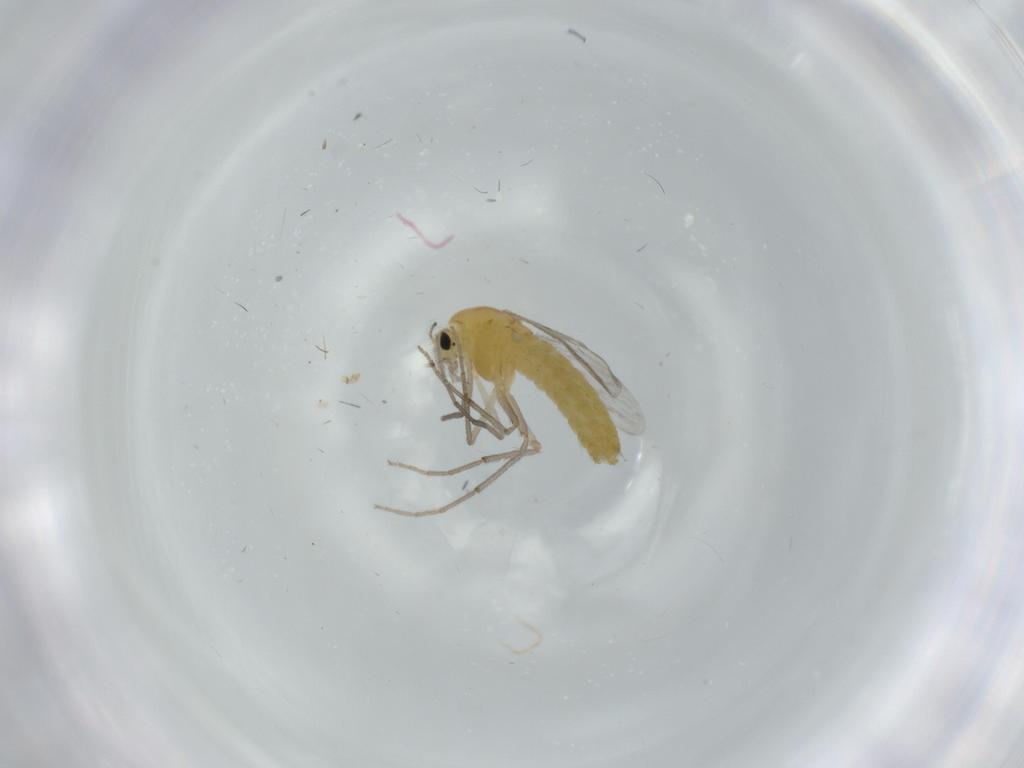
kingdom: Animalia
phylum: Arthropoda
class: Insecta
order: Diptera
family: Chironomidae
